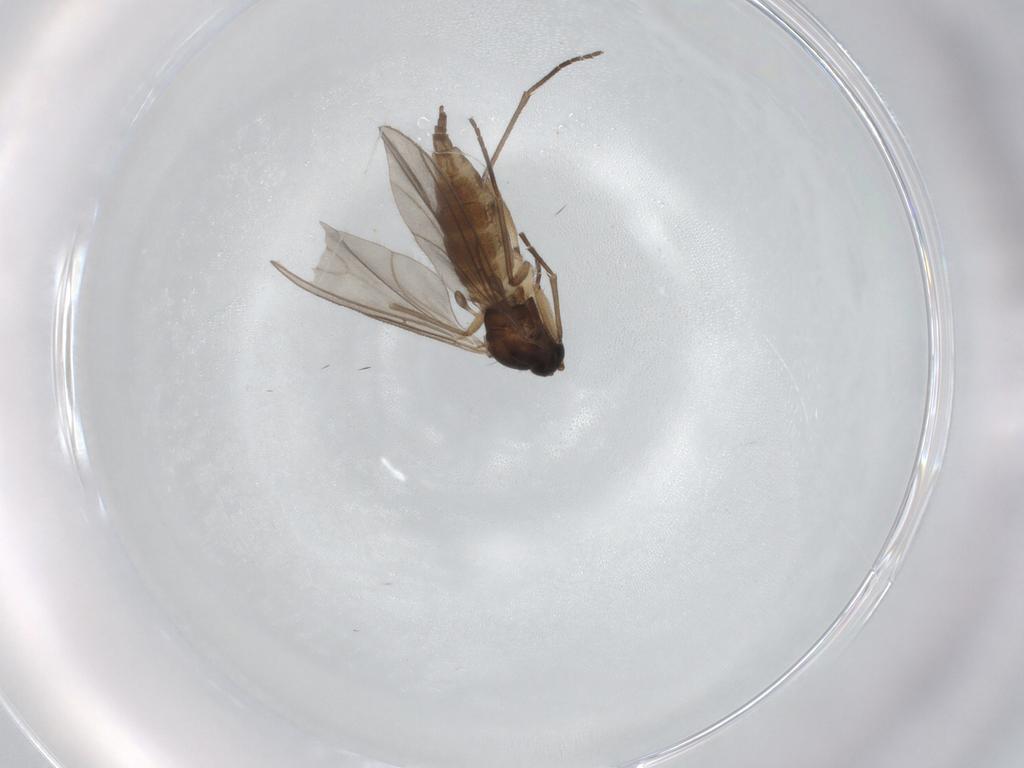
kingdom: Animalia
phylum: Arthropoda
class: Insecta
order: Diptera
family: Sciaridae
